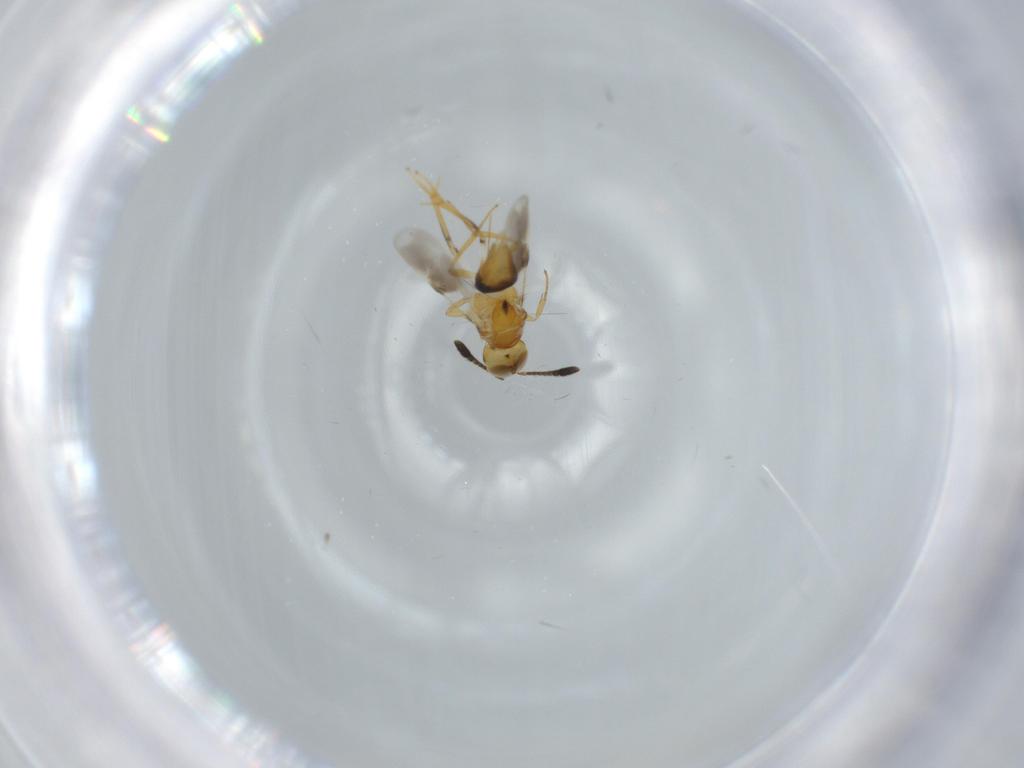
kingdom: Animalia
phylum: Arthropoda
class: Insecta
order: Hymenoptera
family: Encyrtidae
